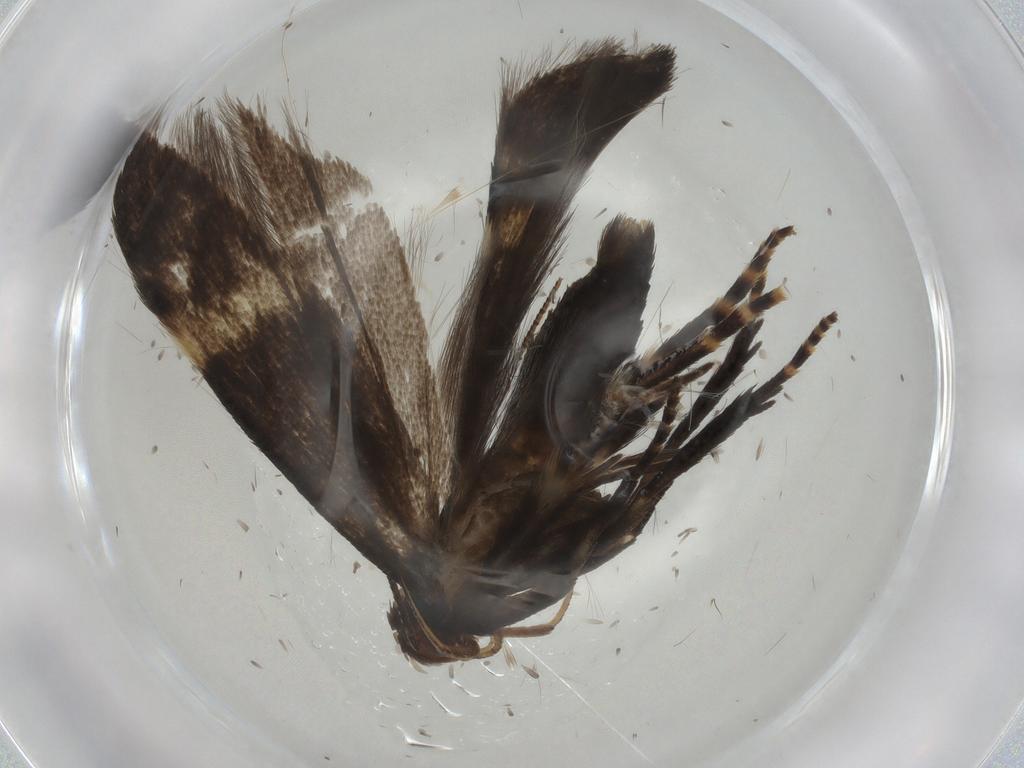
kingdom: Animalia
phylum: Arthropoda
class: Insecta
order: Lepidoptera
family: Gelechiidae
